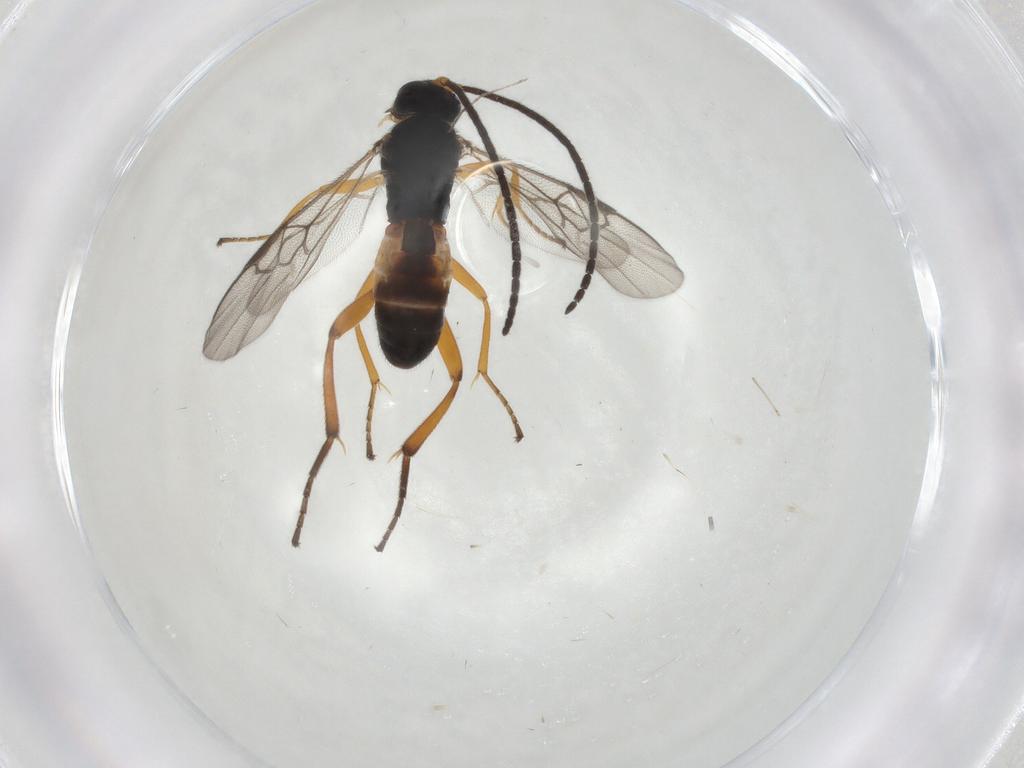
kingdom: Animalia
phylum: Arthropoda
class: Insecta
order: Hymenoptera
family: Braconidae
